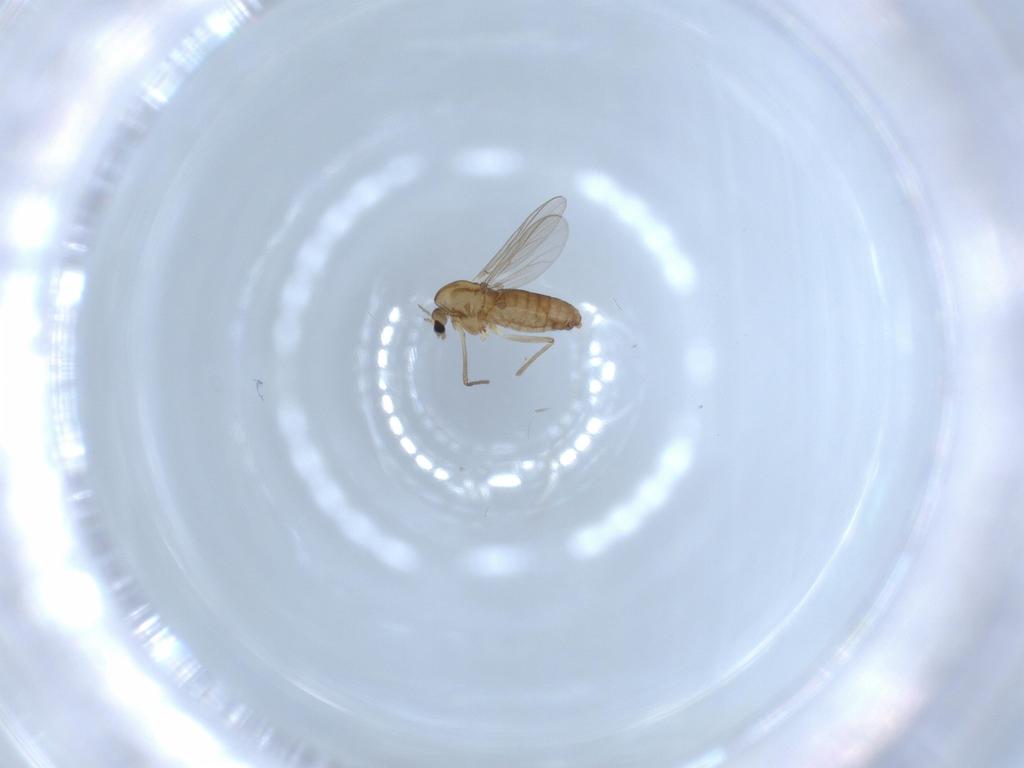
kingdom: Animalia
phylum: Arthropoda
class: Insecta
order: Diptera
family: Chironomidae
